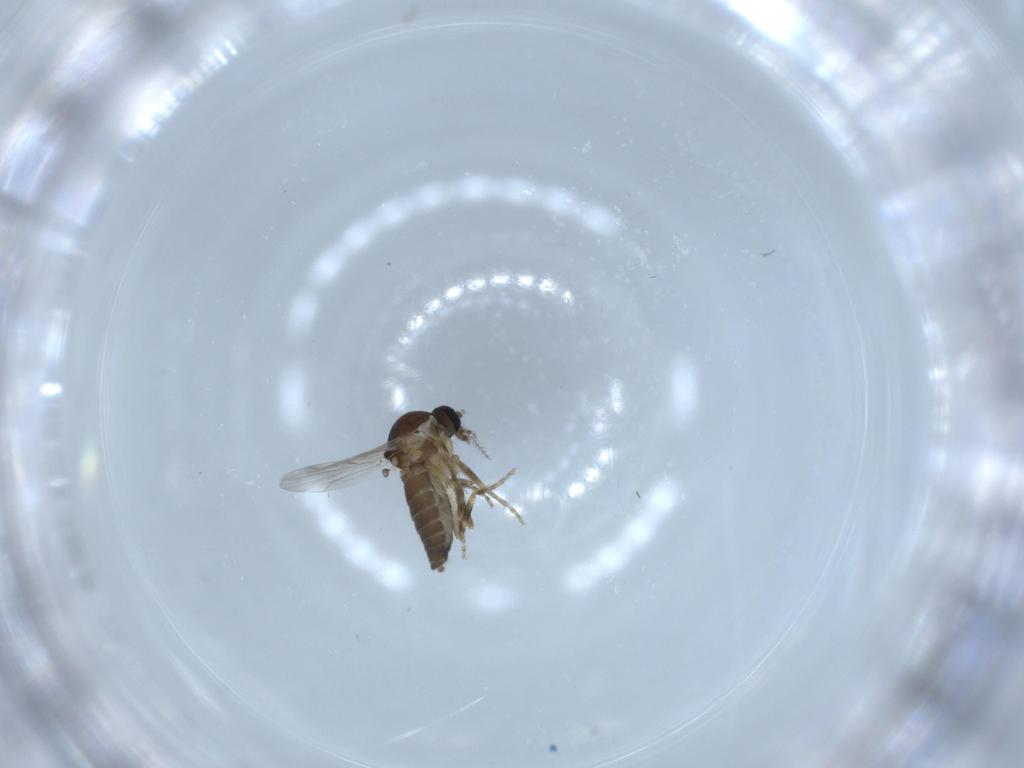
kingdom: Animalia
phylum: Arthropoda
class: Insecta
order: Diptera
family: Ceratopogonidae
